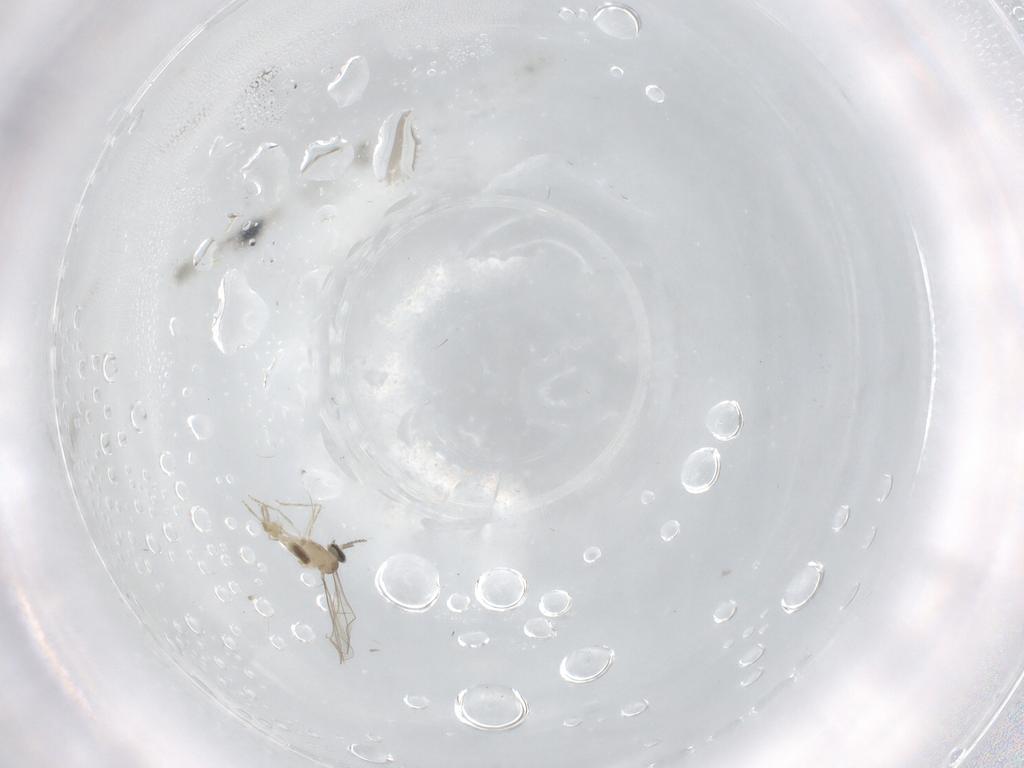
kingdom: Animalia
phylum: Arthropoda
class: Insecta
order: Diptera
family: Cecidomyiidae
